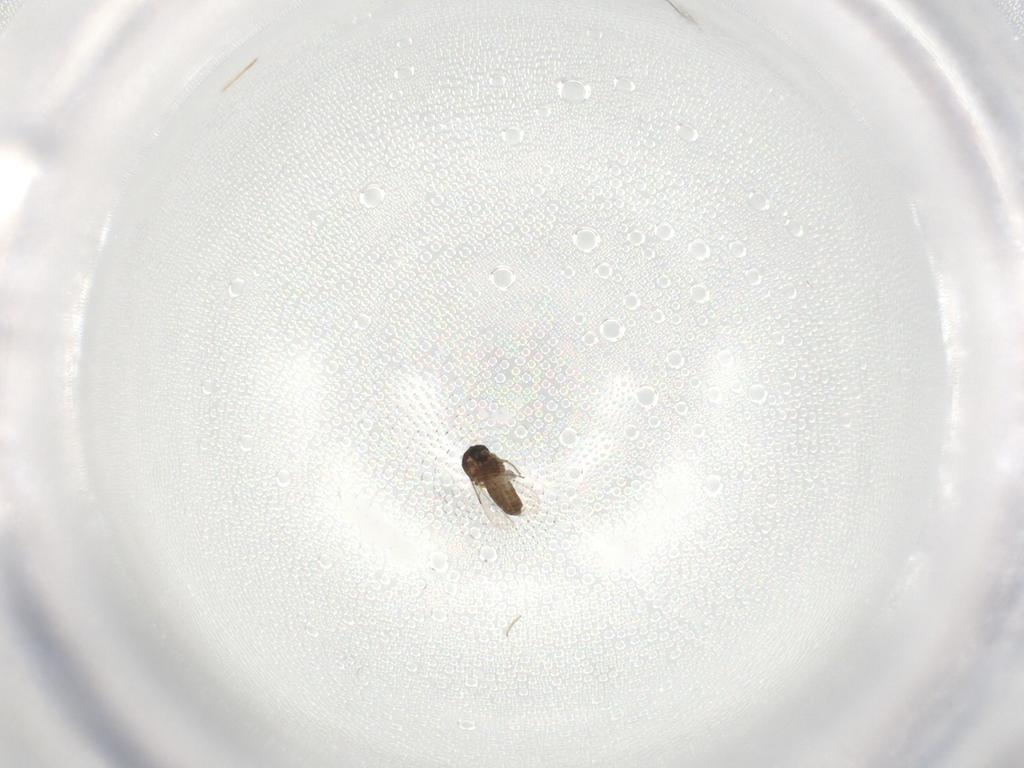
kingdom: Animalia
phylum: Arthropoda
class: Insecta
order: Diptera
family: Ceratopogonidae
